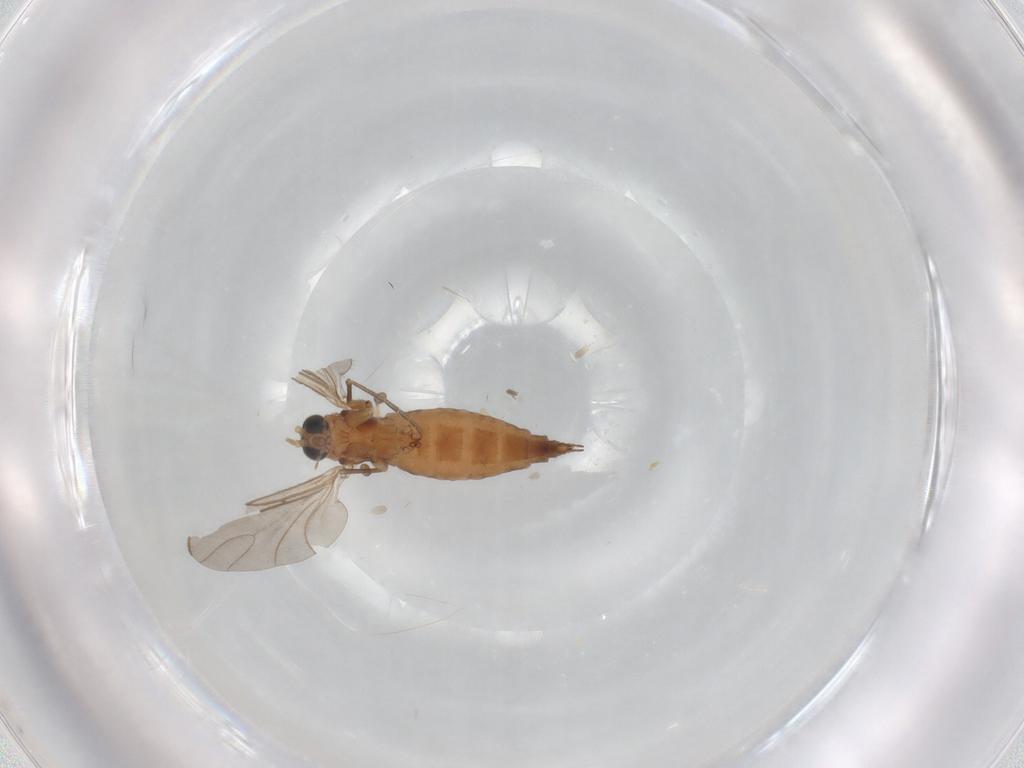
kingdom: Animalia
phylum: Arthropoda
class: Insecta
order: Diptera
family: Sciaridae
